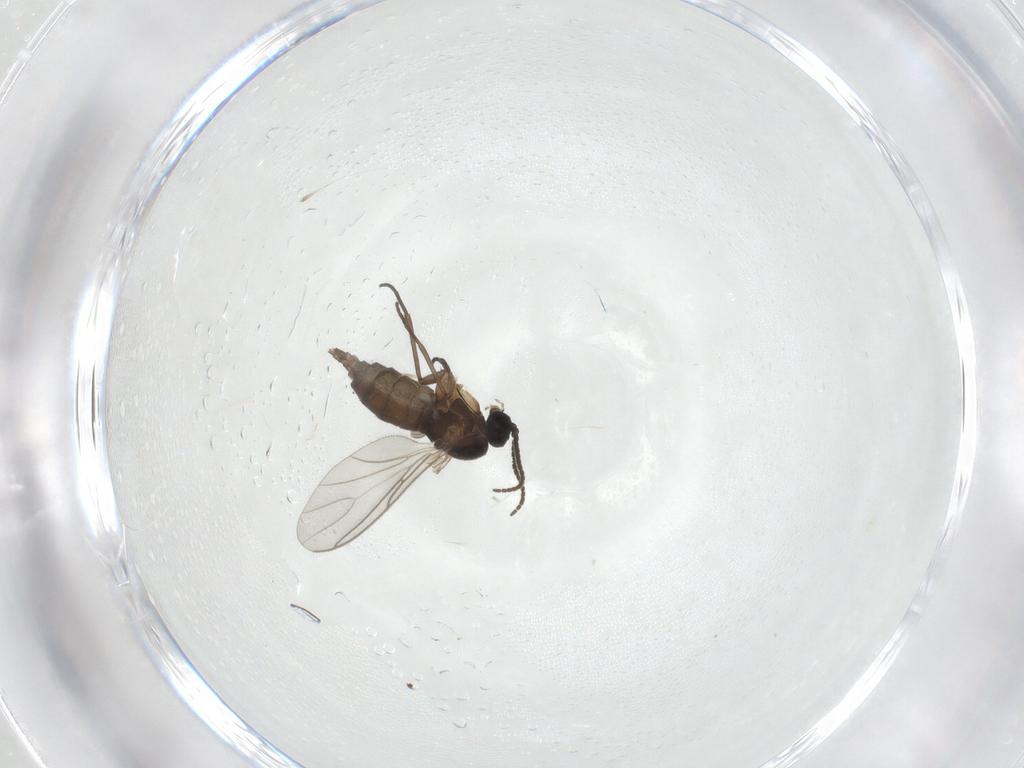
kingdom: Animalia
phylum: Arthropoda
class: Insecta
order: Diptera
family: Sciaridae
